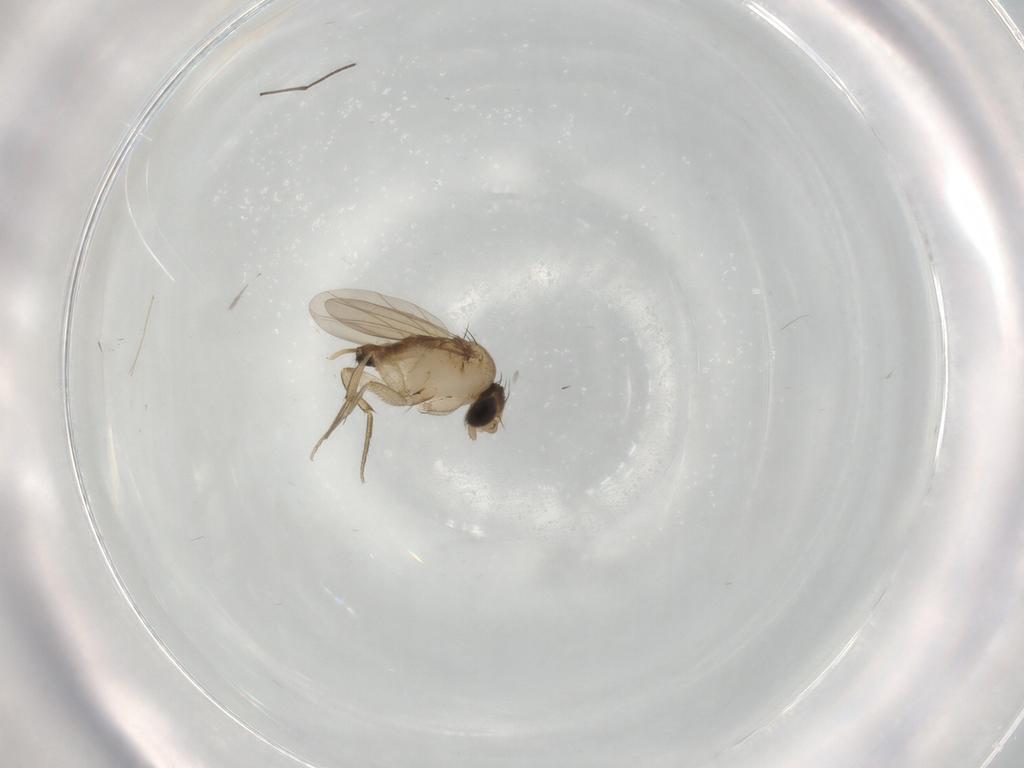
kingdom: Animalia
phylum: Arthropoda
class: Insecta
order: Diptera
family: Phoridae
